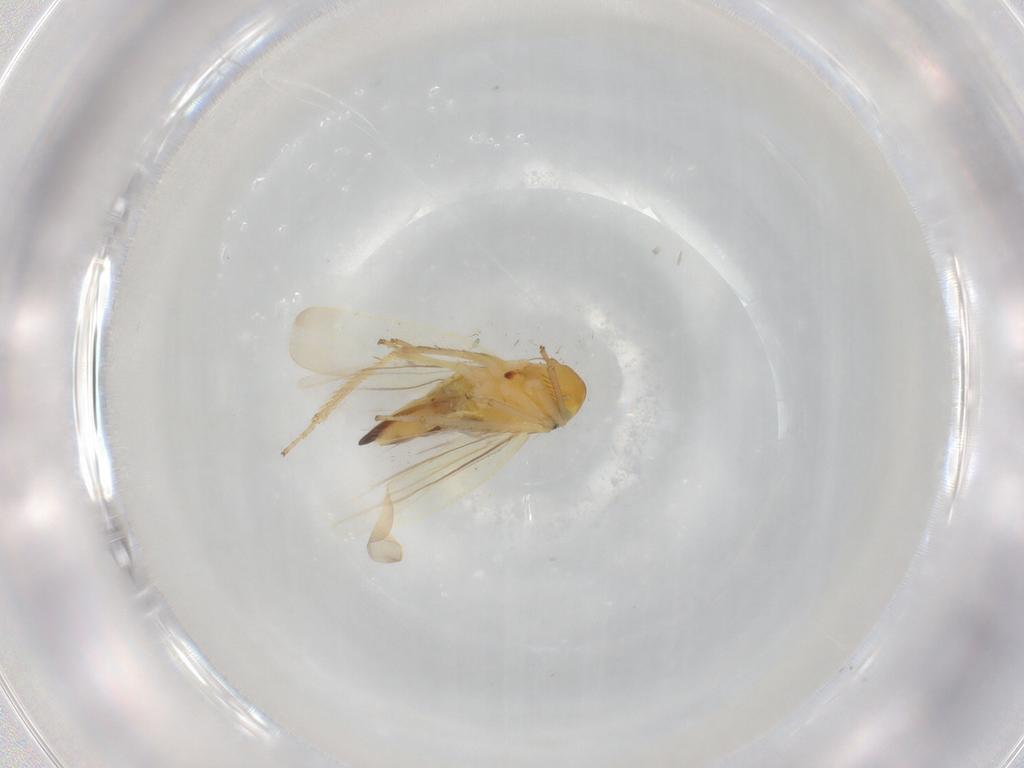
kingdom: Animalia
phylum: Arthropoda
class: Insecta
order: Hemiptera
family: Cicadellidae
